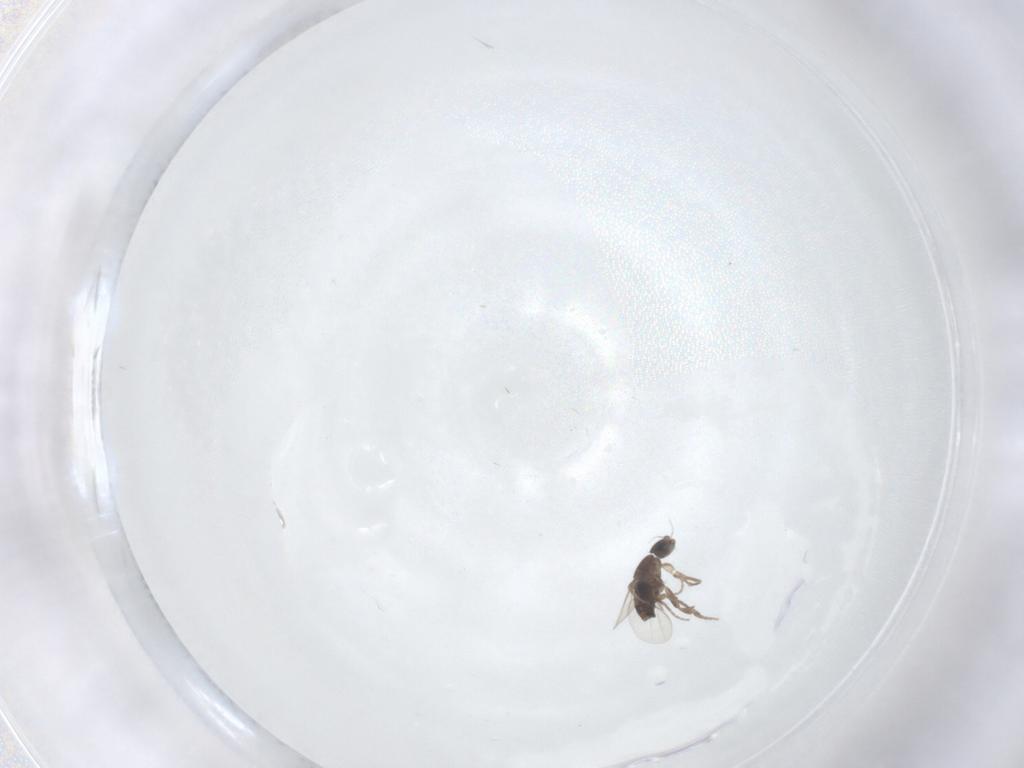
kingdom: Animalia
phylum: Arthropoda
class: Insecta
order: Diptera
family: Phoridae
